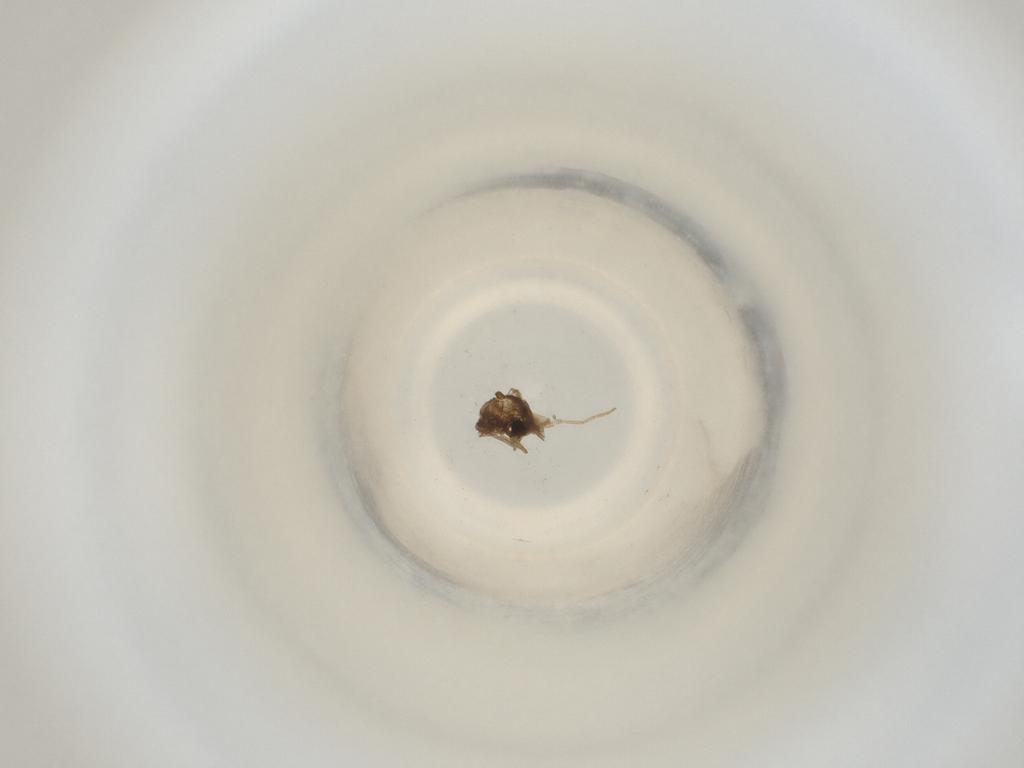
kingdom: Animalia
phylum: Arthropoda
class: Insecta
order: Diptera
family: Cecidomyiidae
